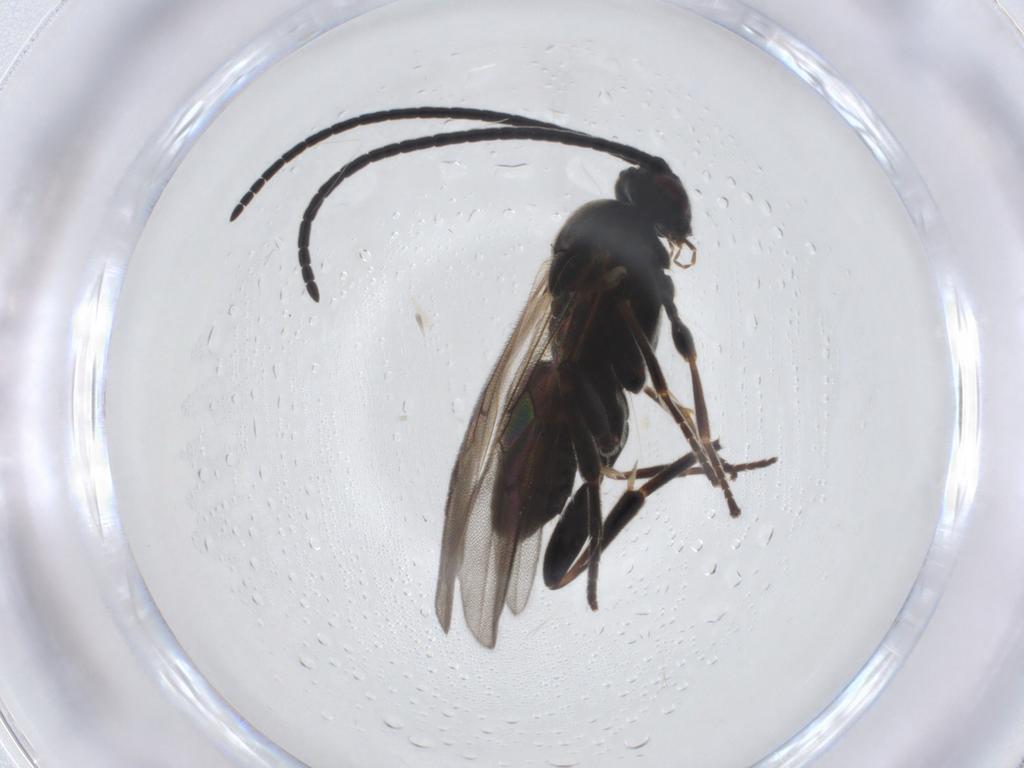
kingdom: Animalia
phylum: Arthropoda
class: Insecta
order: Hymenoptera
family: Braconidae
